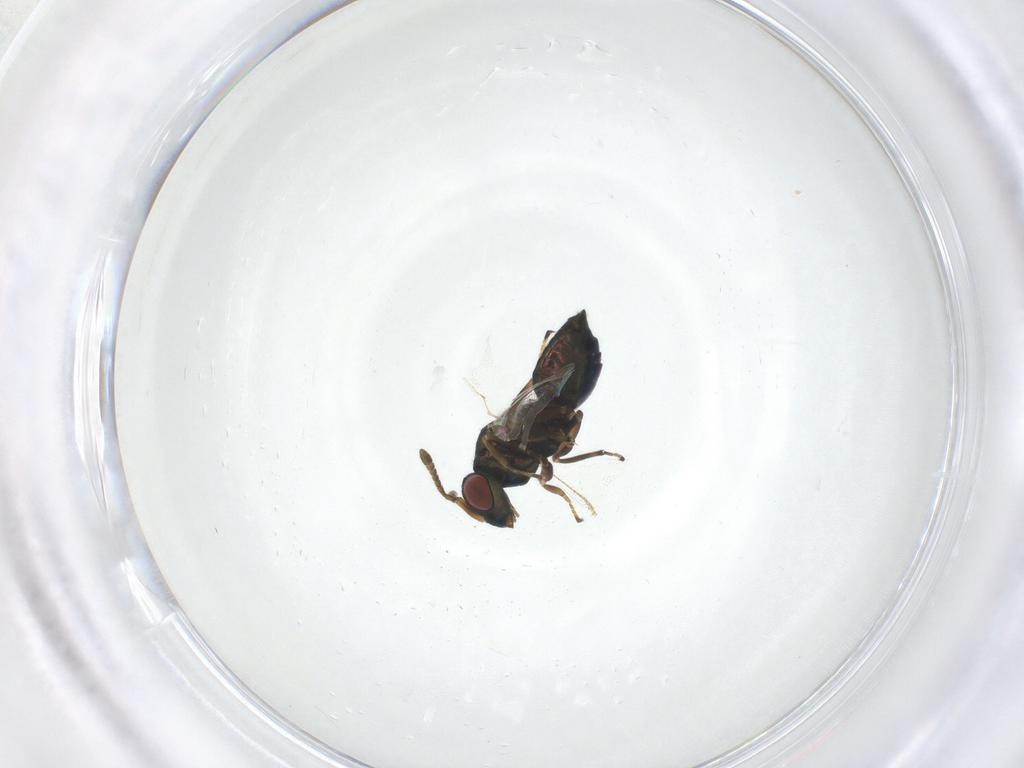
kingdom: Animalia
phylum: Arthropoda
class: Insecta
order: Hymenoptera
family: Pteromalidae
